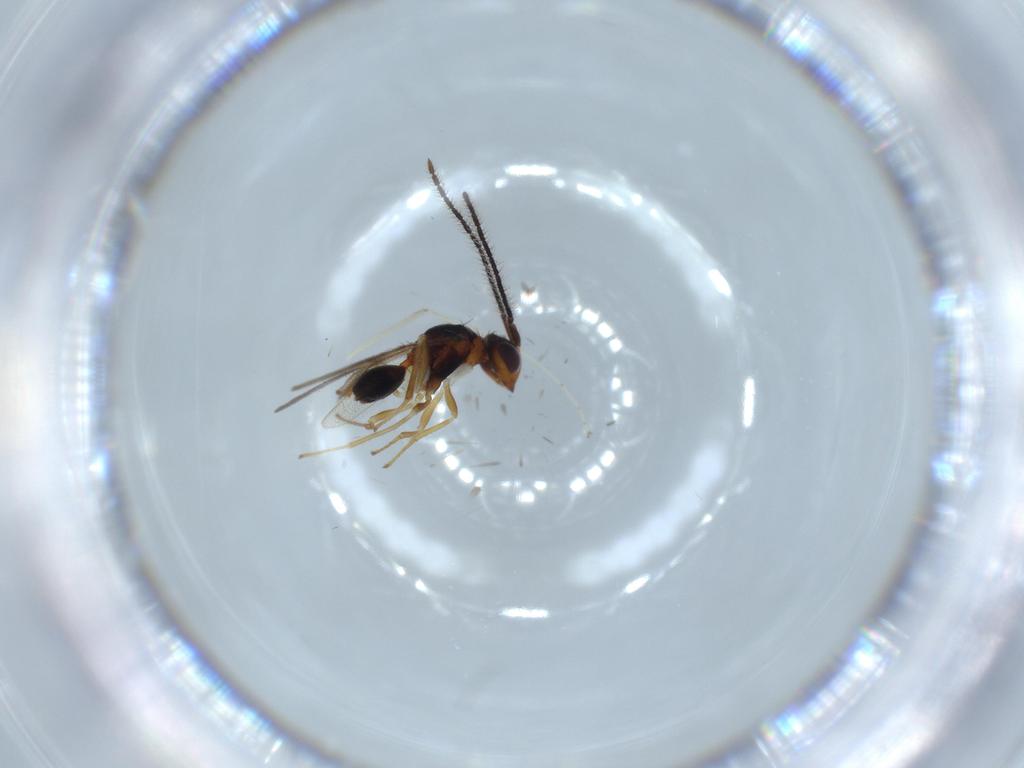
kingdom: Animalia
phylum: Arthropoda
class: Insecta
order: Hymenoptera
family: Diparidae
